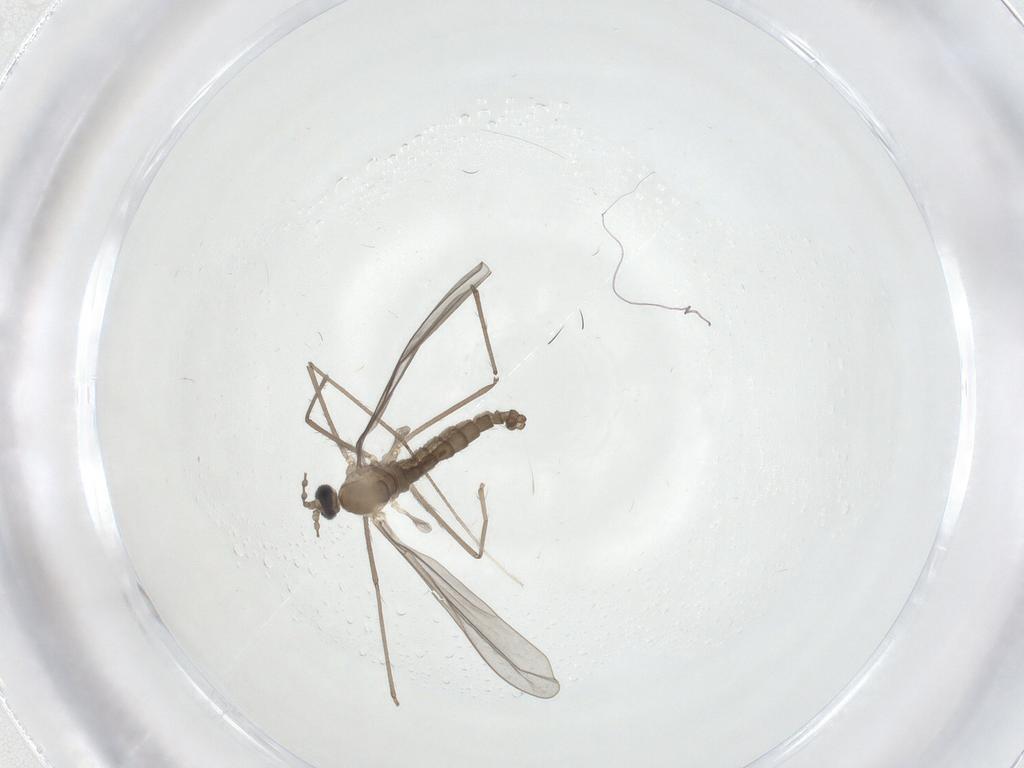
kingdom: Animalia
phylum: Arthropoda
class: Insecta
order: Diptera
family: Cecidomyiidae
